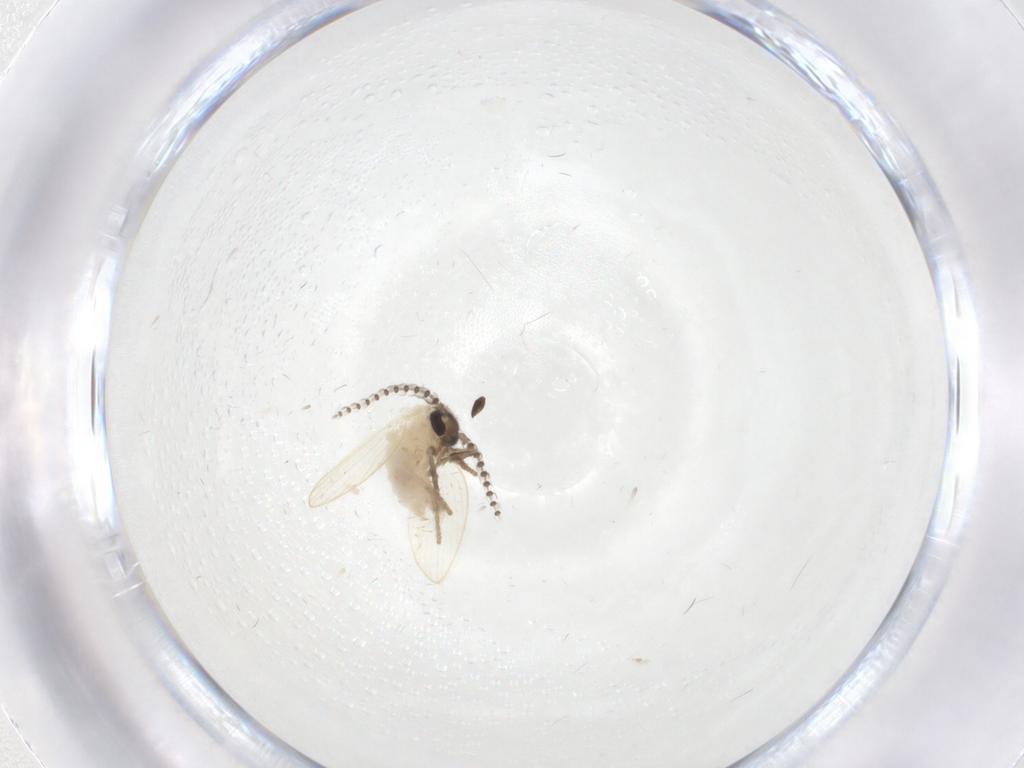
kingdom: Animalia
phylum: Arthropoda
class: Insecta
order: Diptera
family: Psychodidae
